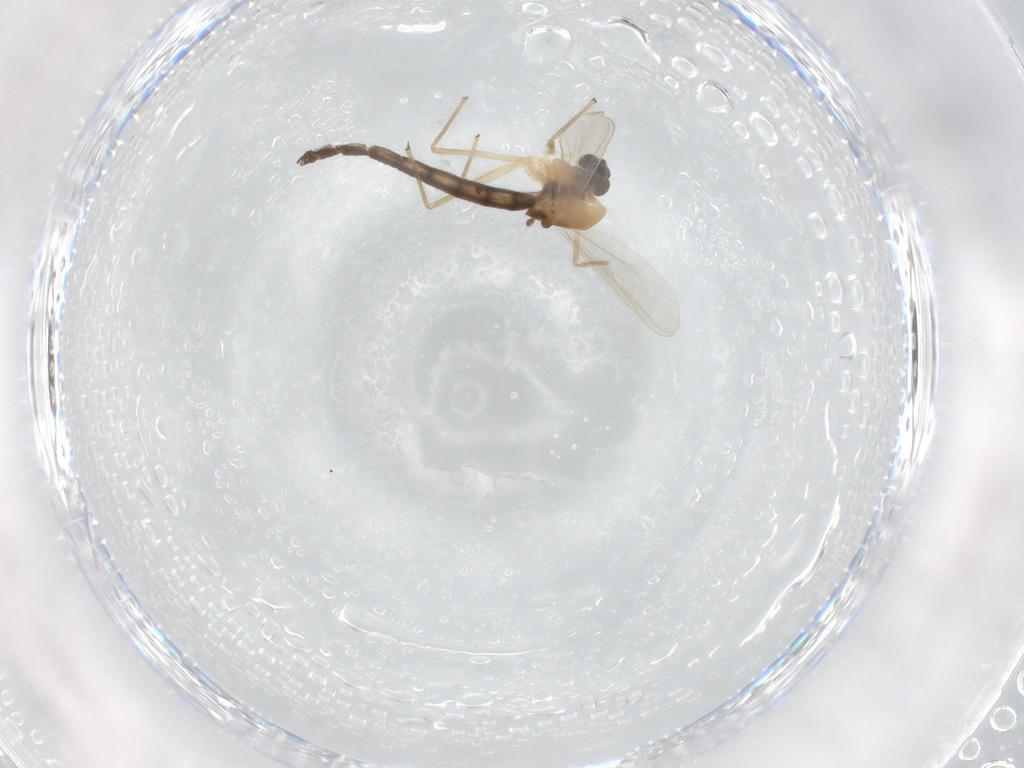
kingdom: Animalia
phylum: Arthropoda
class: Insecta
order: Diptera
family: Chironomidae
